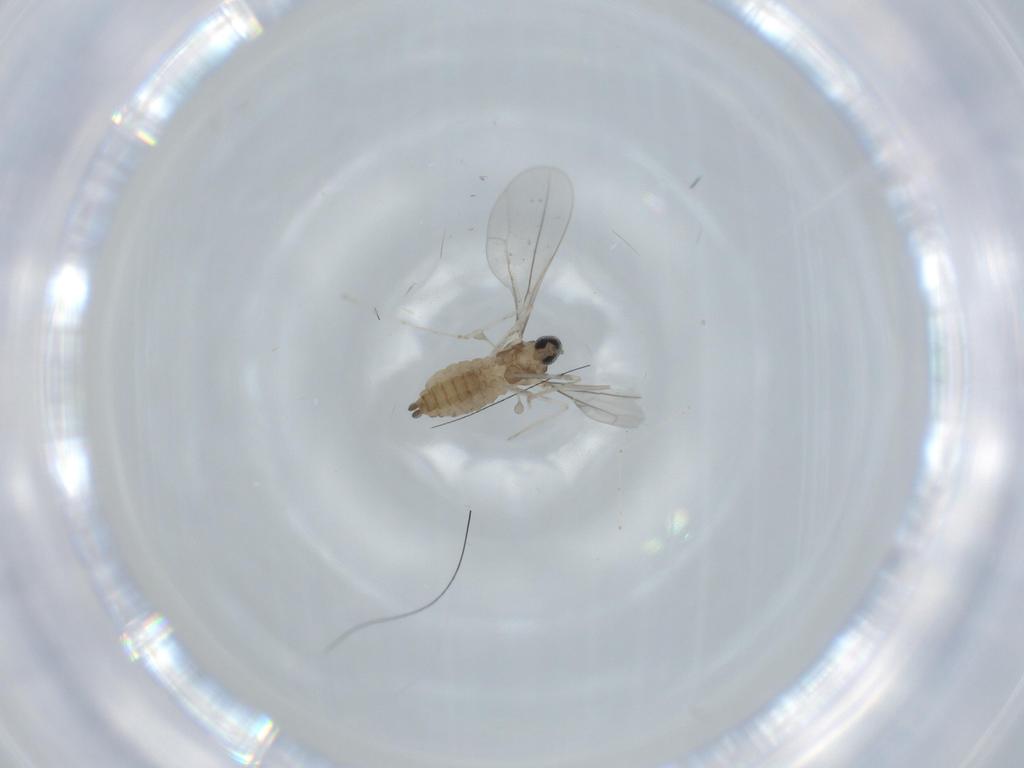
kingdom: Animalia
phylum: Arthropoda
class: Insecta
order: Diptera
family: Cecidomyiidae
